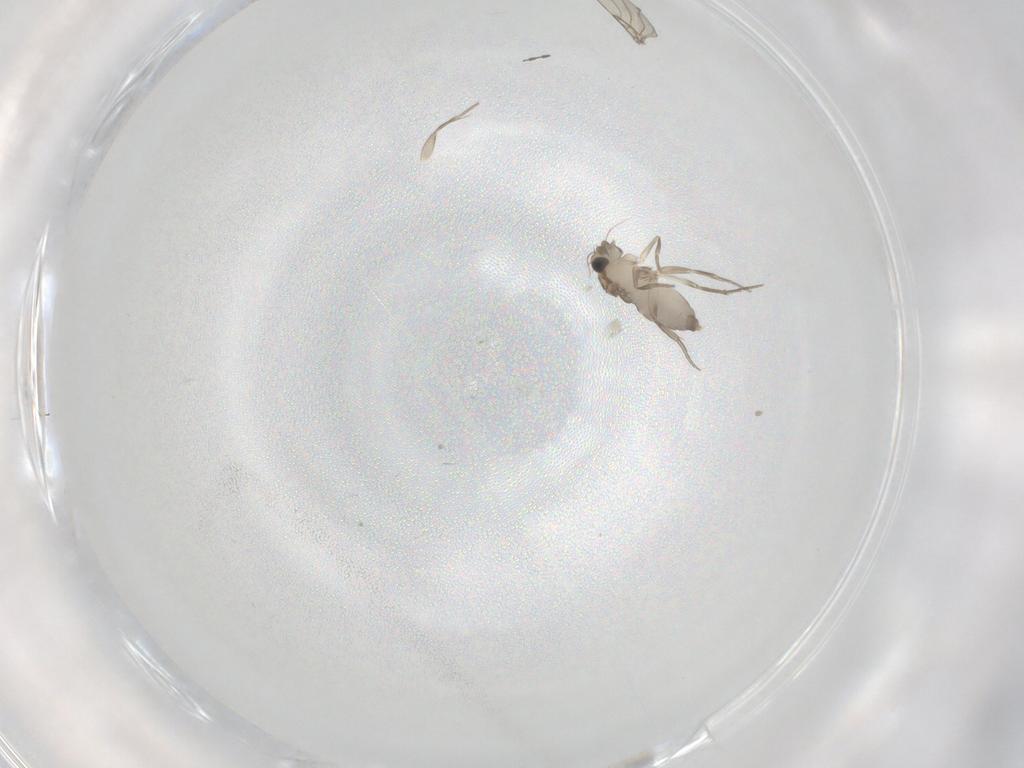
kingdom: Animalia
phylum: Arthropoda
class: Insecta
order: Diptera
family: Phoridae
